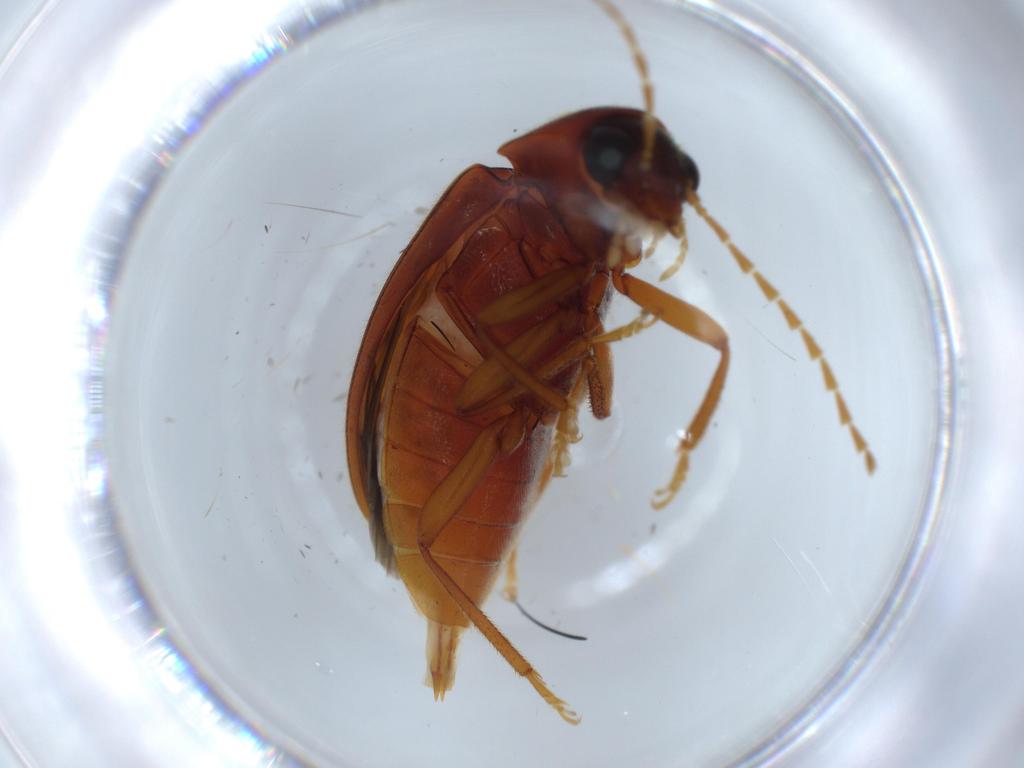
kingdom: Animalia
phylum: Arthropoda
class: Insecta
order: Coleoptera
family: Ptilodactylidae
